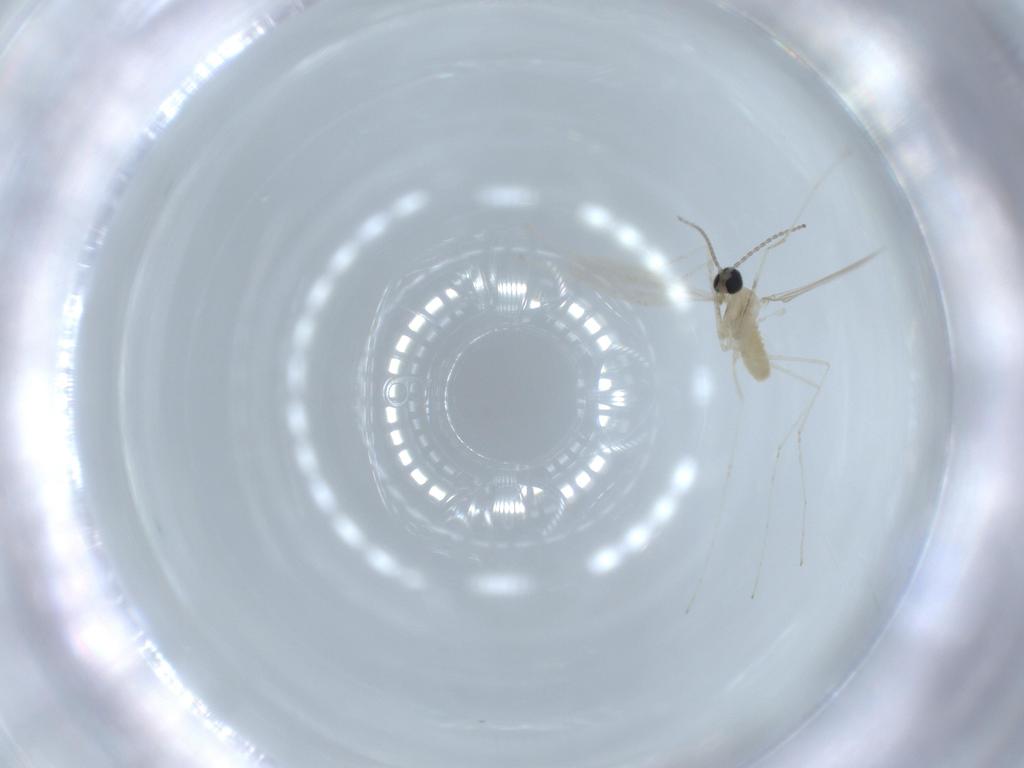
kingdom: Animalia
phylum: Arthropoda
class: Insecta
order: Diptera
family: Cecidomyiidae
